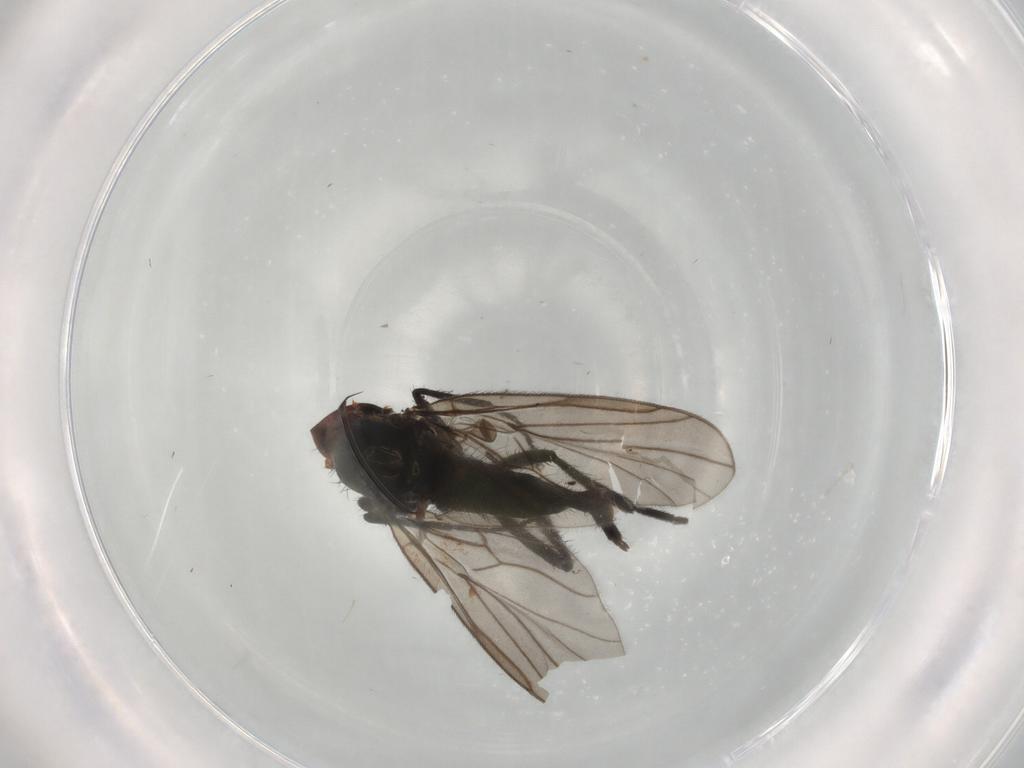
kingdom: Animalia
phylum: Arthropoda
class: Insecta
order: Diptera
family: Hybotidae
